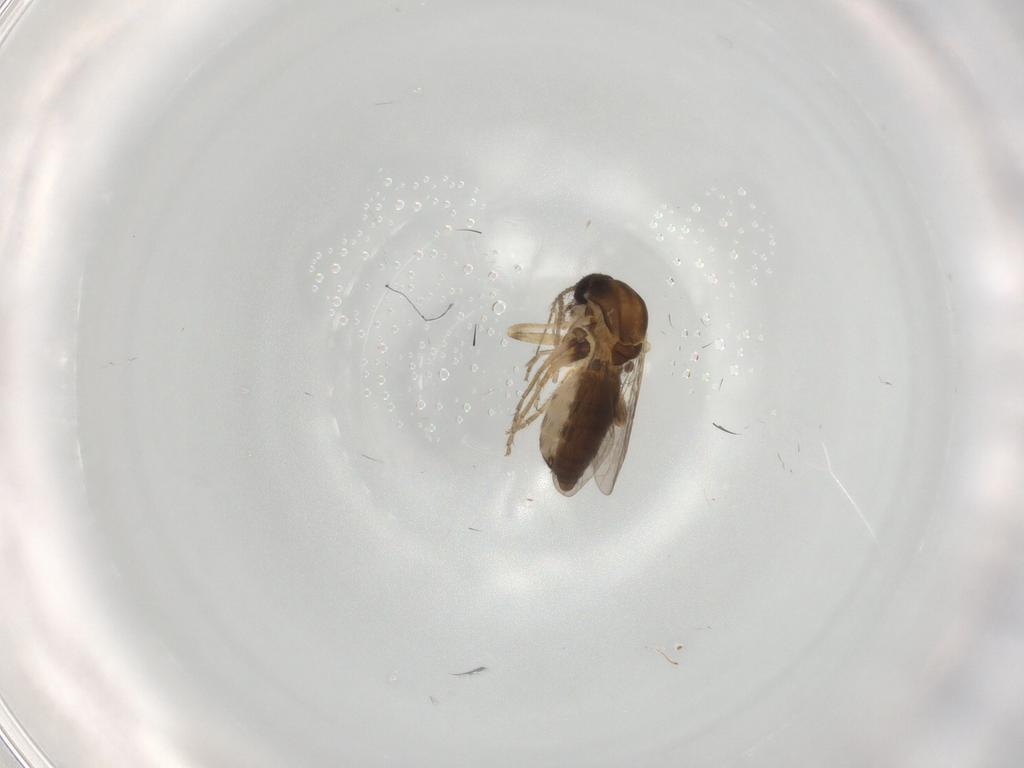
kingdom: Animalia
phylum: Arthropoda
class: Insecta
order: Diptera
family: Ceratopogonidae
